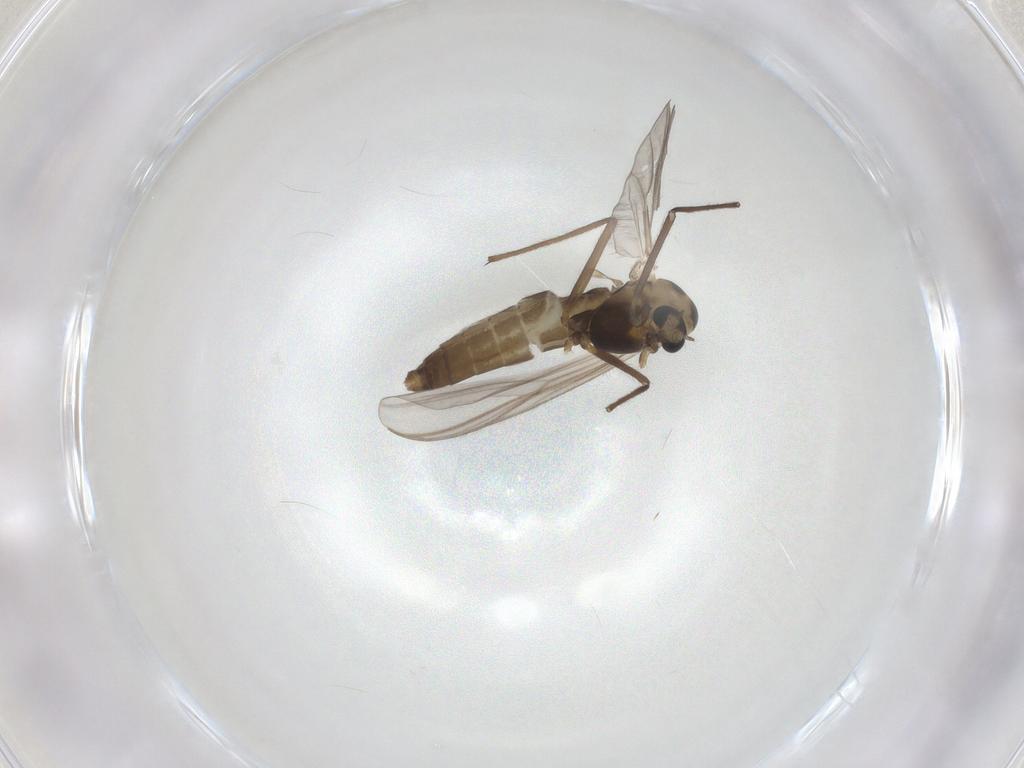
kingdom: Animalia
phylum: Arthropoda
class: Insecta
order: Diptera
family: Chironomidae
